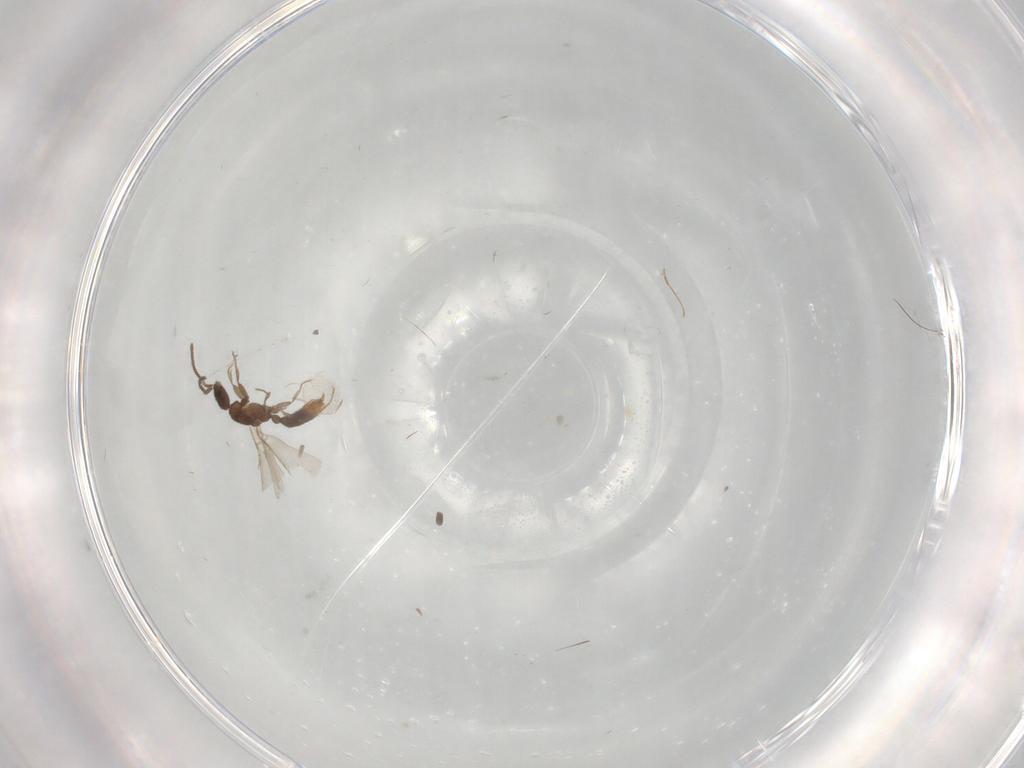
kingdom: Animalia
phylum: Arthropoda
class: Insecta
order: Hymenoptera
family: Formicidae
